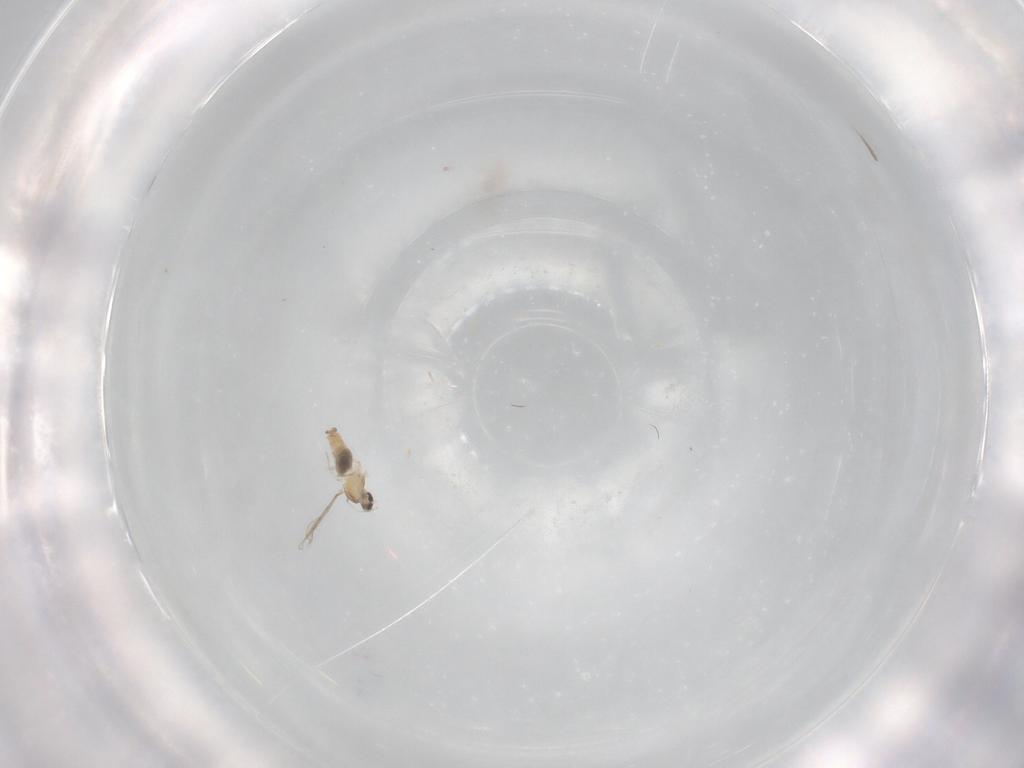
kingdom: Animalia
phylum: Arthropoda
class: Insecta
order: Diptera
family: Cecidomyiidae
